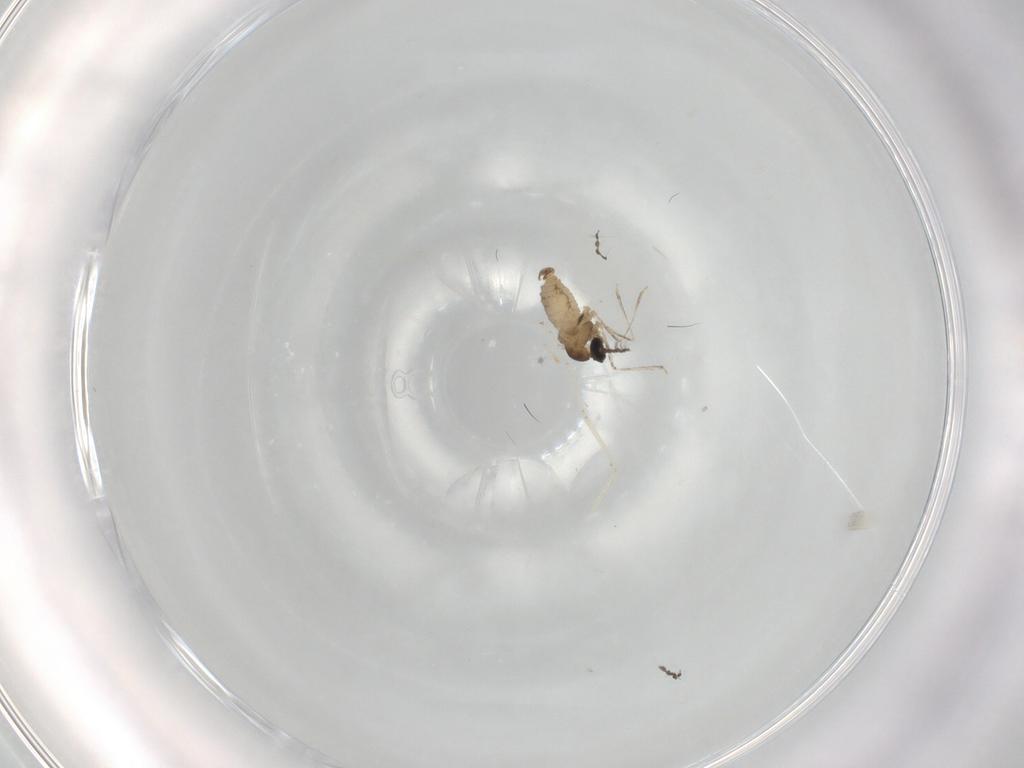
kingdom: Animalia
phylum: Arthropoda
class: Insecta
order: Diptera
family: Cecidomyiidae
